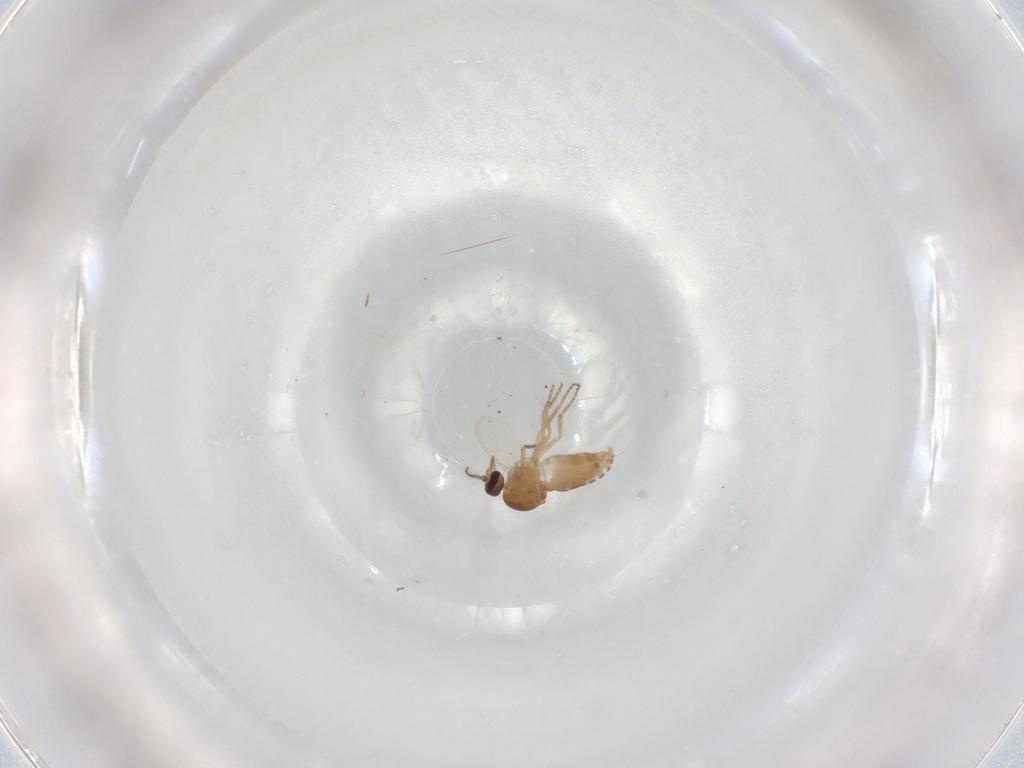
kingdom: Animalia
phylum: Arthropoda
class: Insecta
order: Diptera
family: Ceratopogonidae
